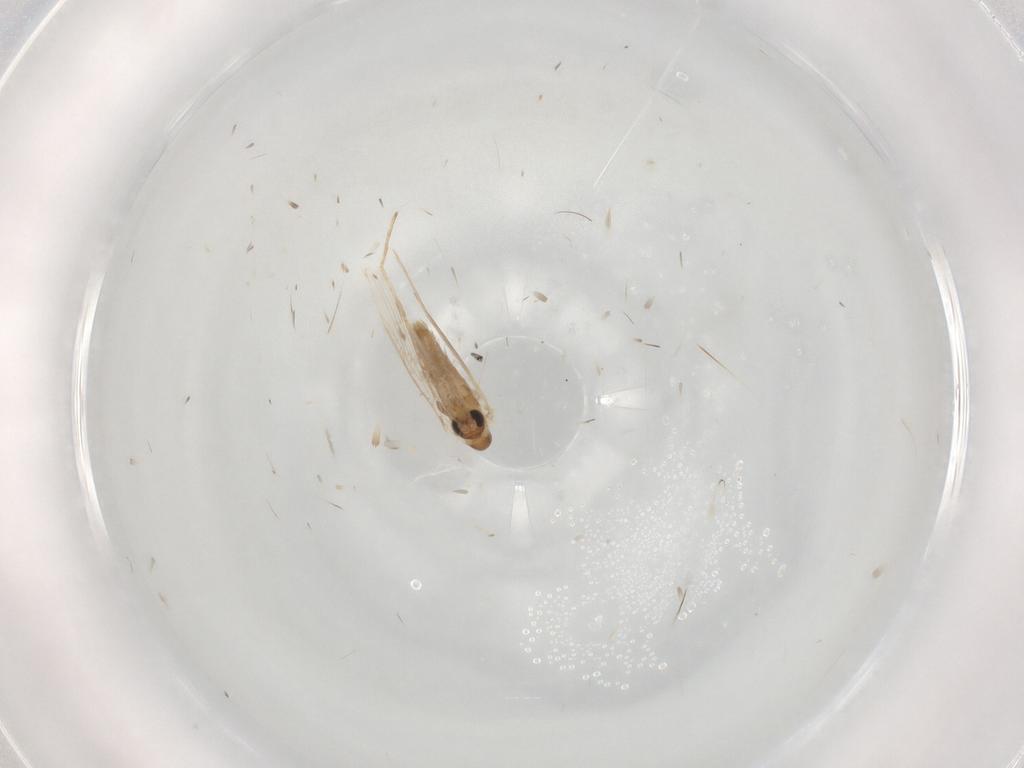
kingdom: Animalia
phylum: Arthropoda
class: Insecta
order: Diptera
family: Psychodidae
